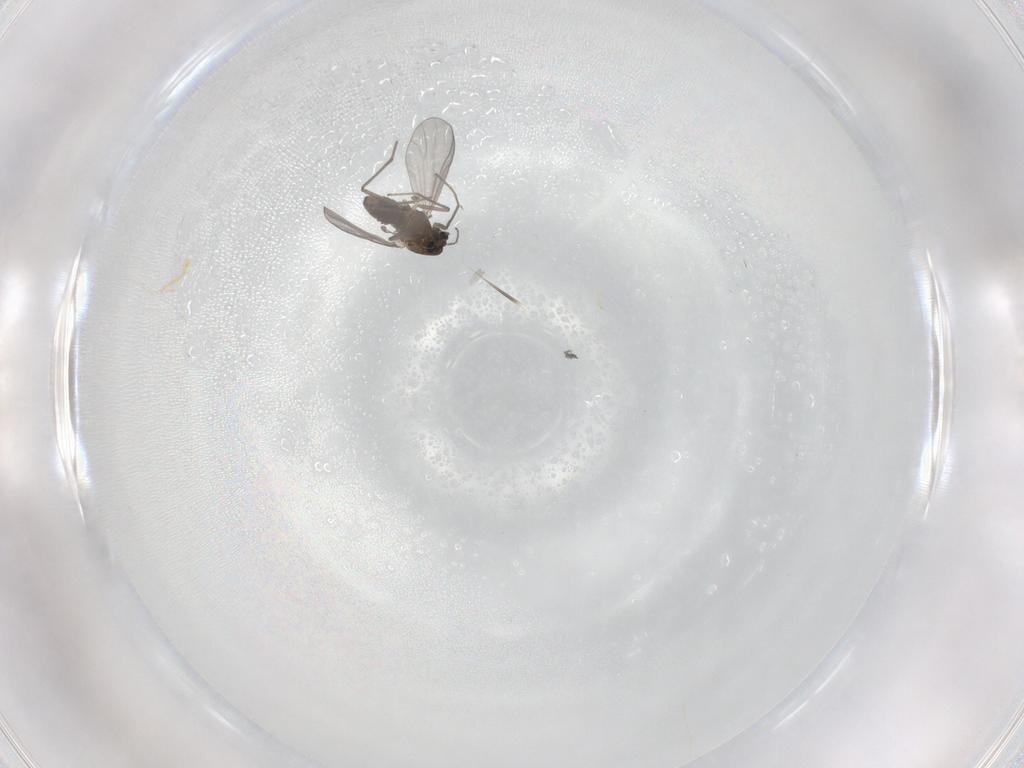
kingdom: Animalia
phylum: Arthropoda
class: Insecta
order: Diptera
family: Chironomidae
